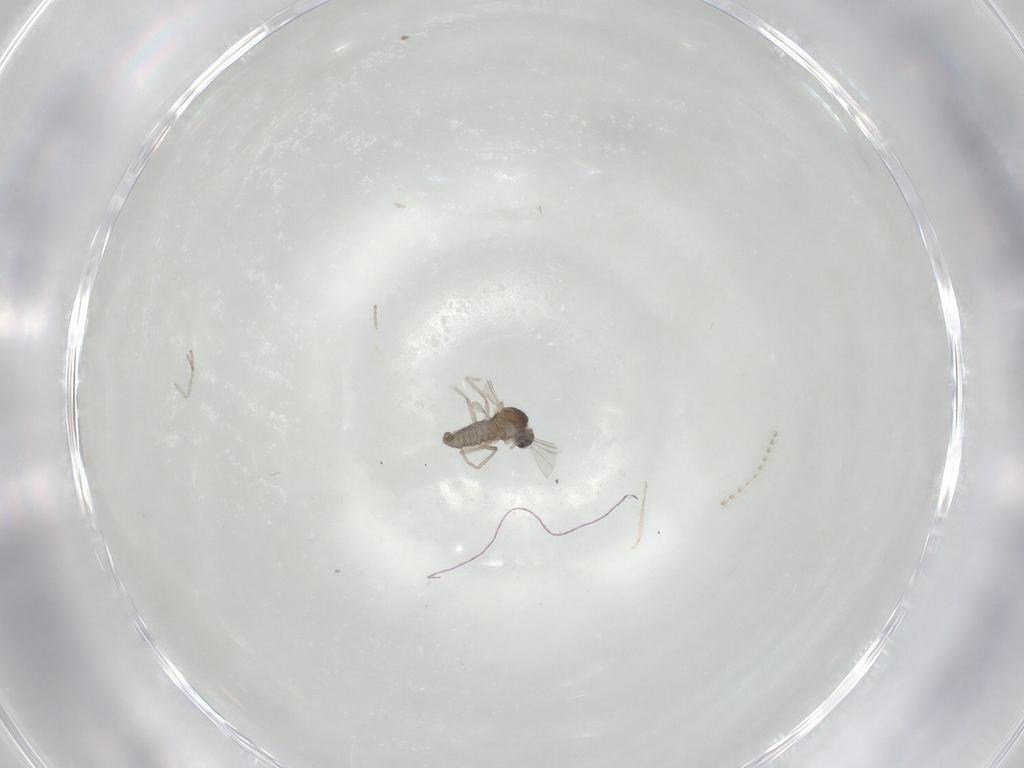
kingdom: Animalia
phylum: Arthropoda
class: Insecta
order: Diptera
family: Cecidomyiidae
